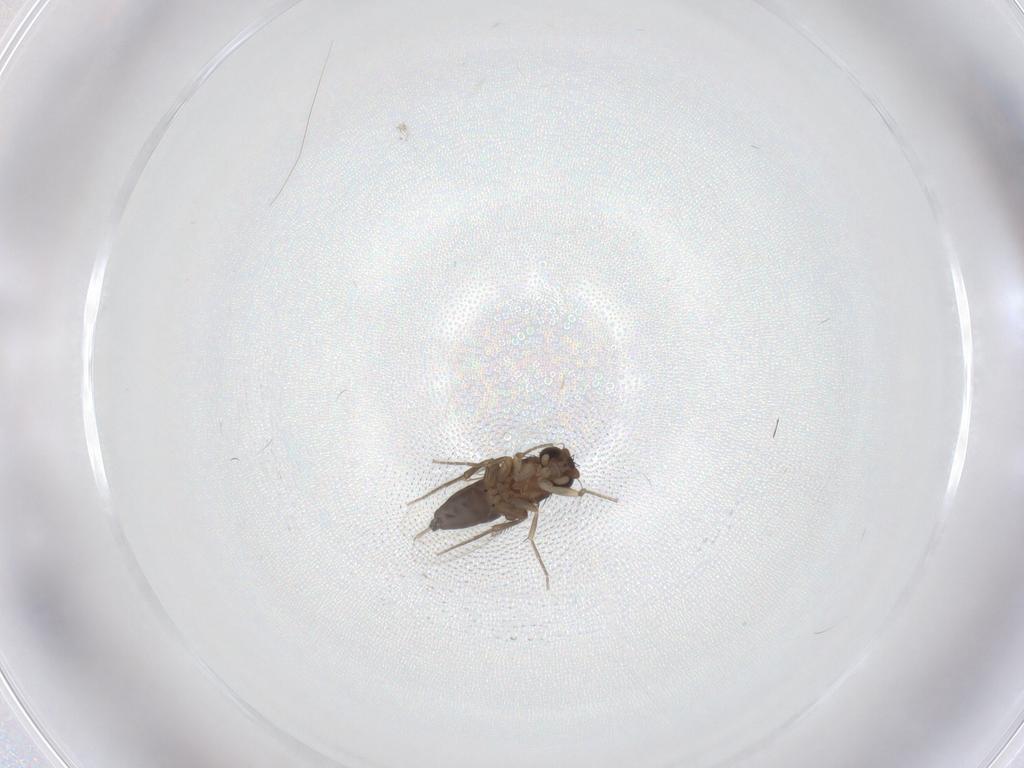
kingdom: Animalia
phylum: Arthropoda
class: Insecta
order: Diptera
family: Phoridae
